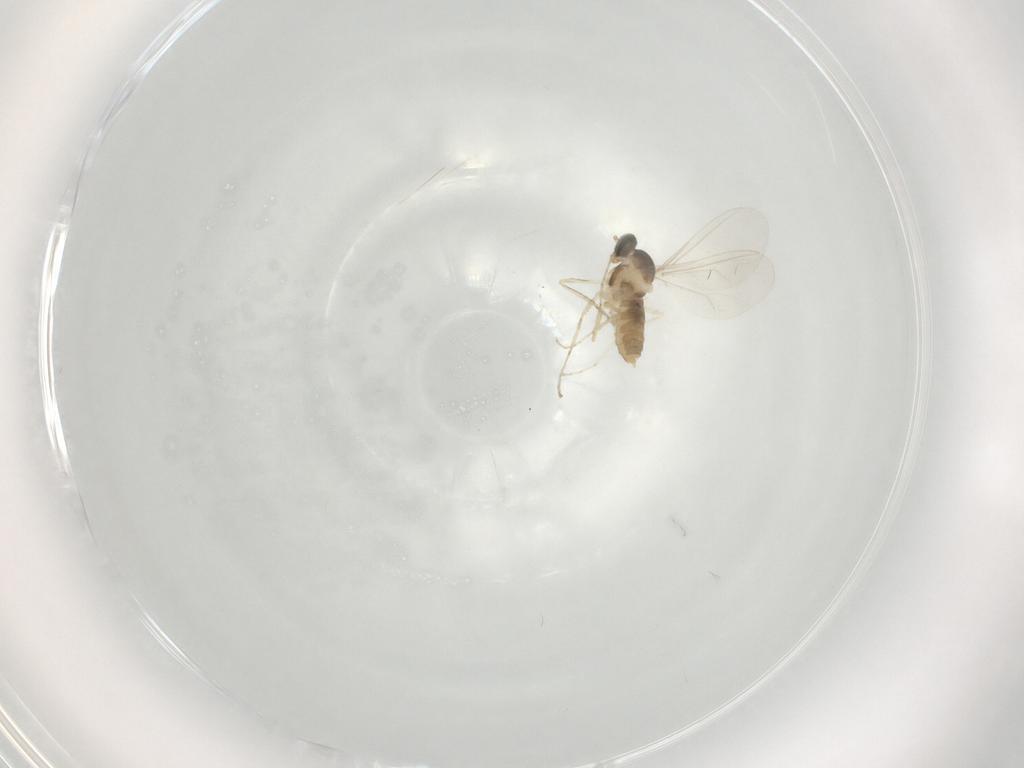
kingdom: Animalia
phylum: Arthropoda
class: Insecta
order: Diptera
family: Cecidomyiidae
